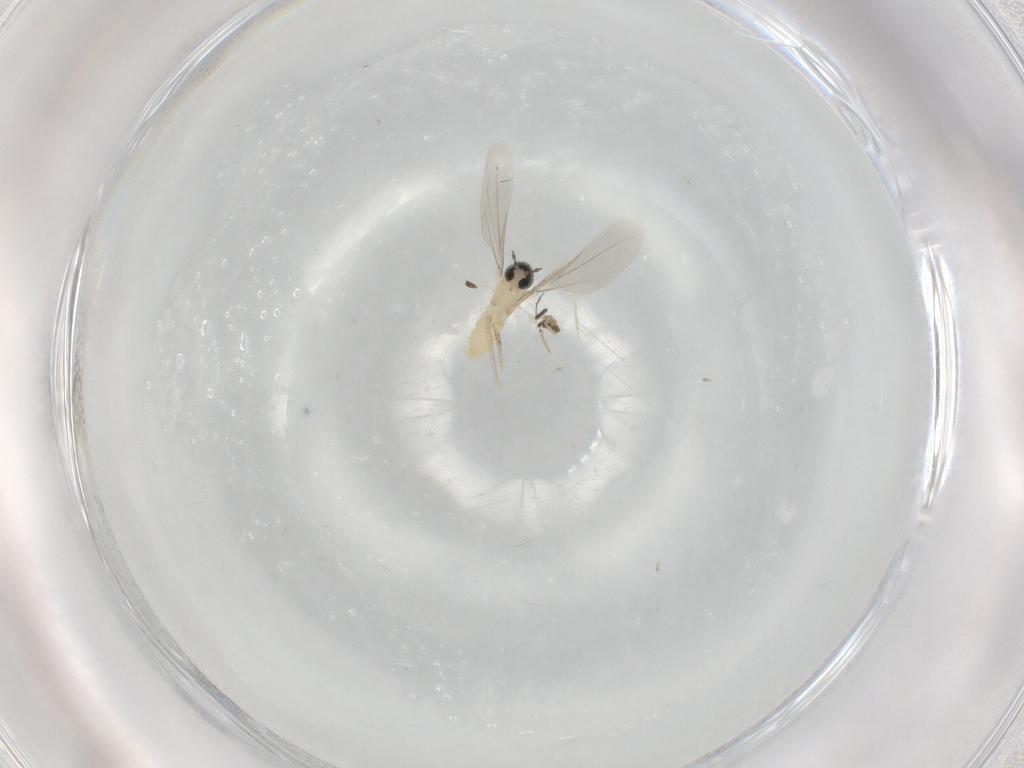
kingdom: Animalia
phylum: Arthropoda
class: Insecta
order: Diptera
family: Cecidomyiidae
